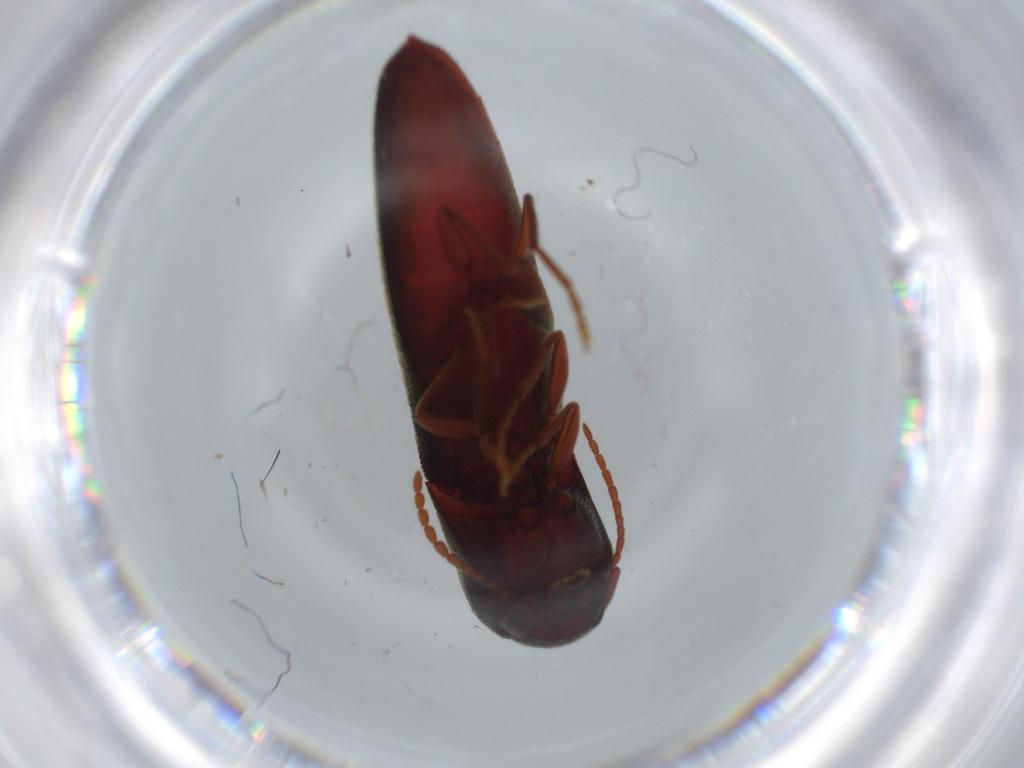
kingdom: Animalia
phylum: Arthropoda
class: Insecta
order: Coleoptera
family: Eucnemidae
